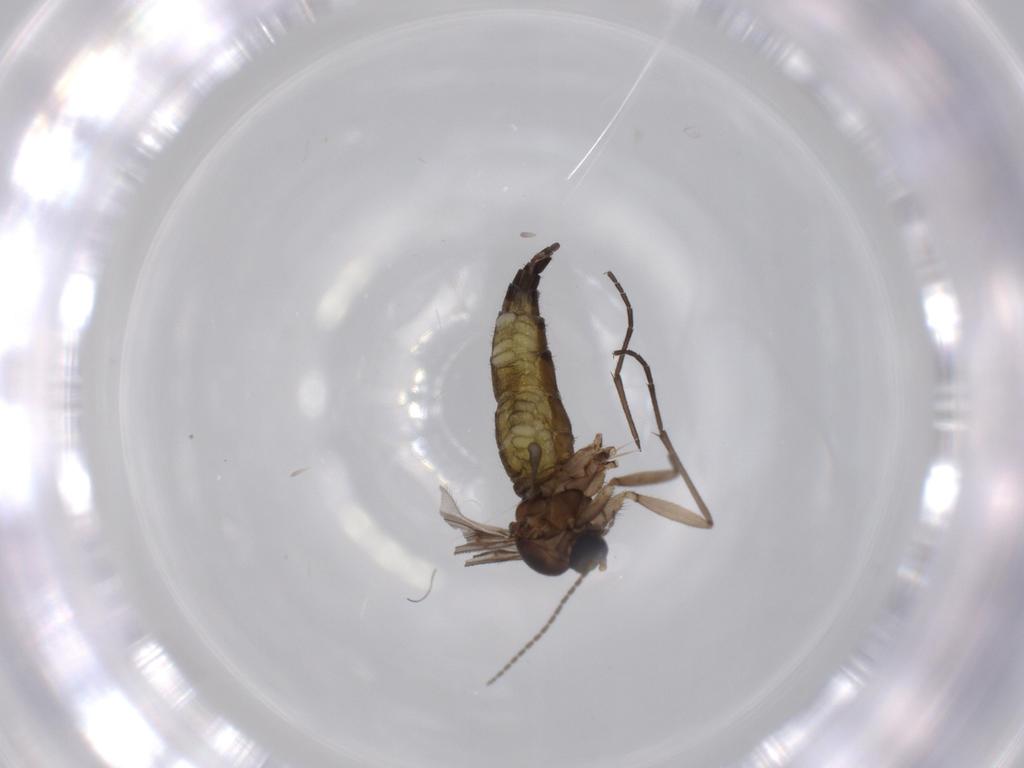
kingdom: Animalia
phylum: Arthropoda
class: Insecta
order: Diptera
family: Sciaridae
